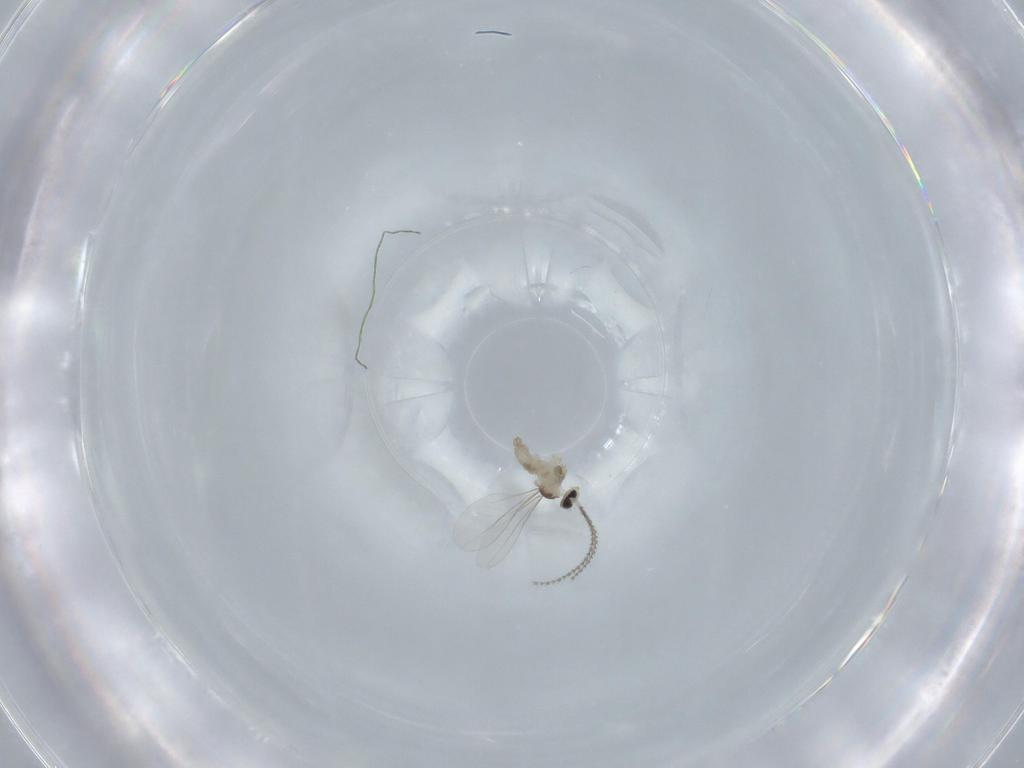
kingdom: Animalia
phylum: Arthropoda
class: Insecta
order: Diptera
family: Cecidomyiidae
